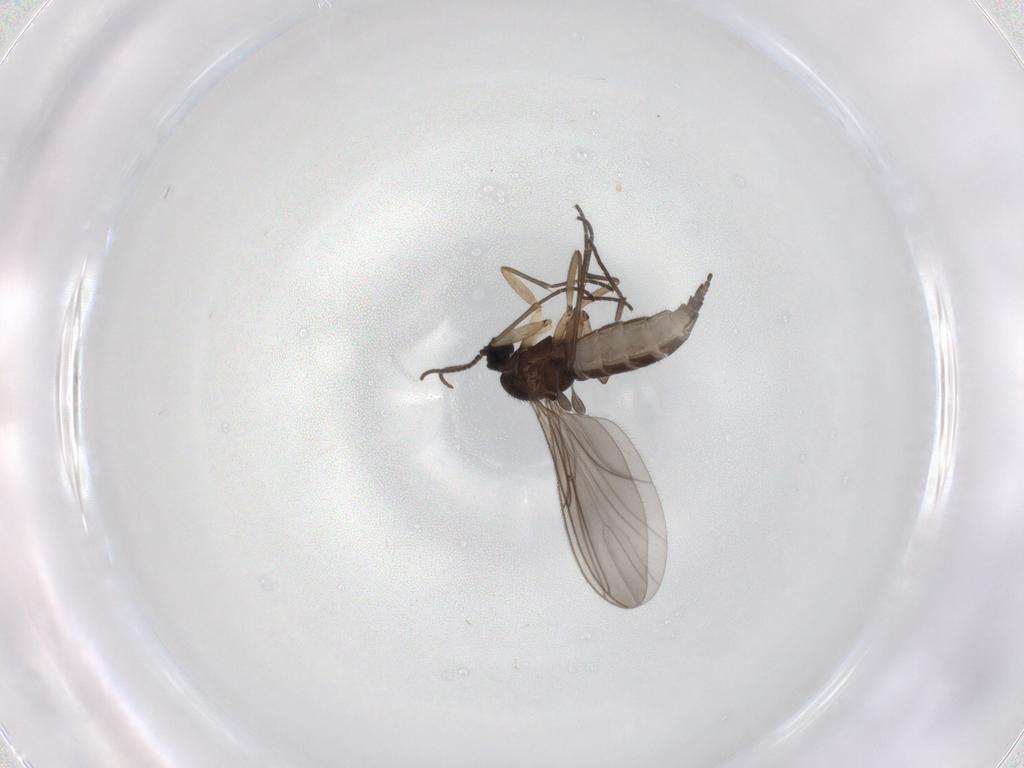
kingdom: Animalia
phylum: Arthropoda
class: Insecta
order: Diptera
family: Sciaridae
